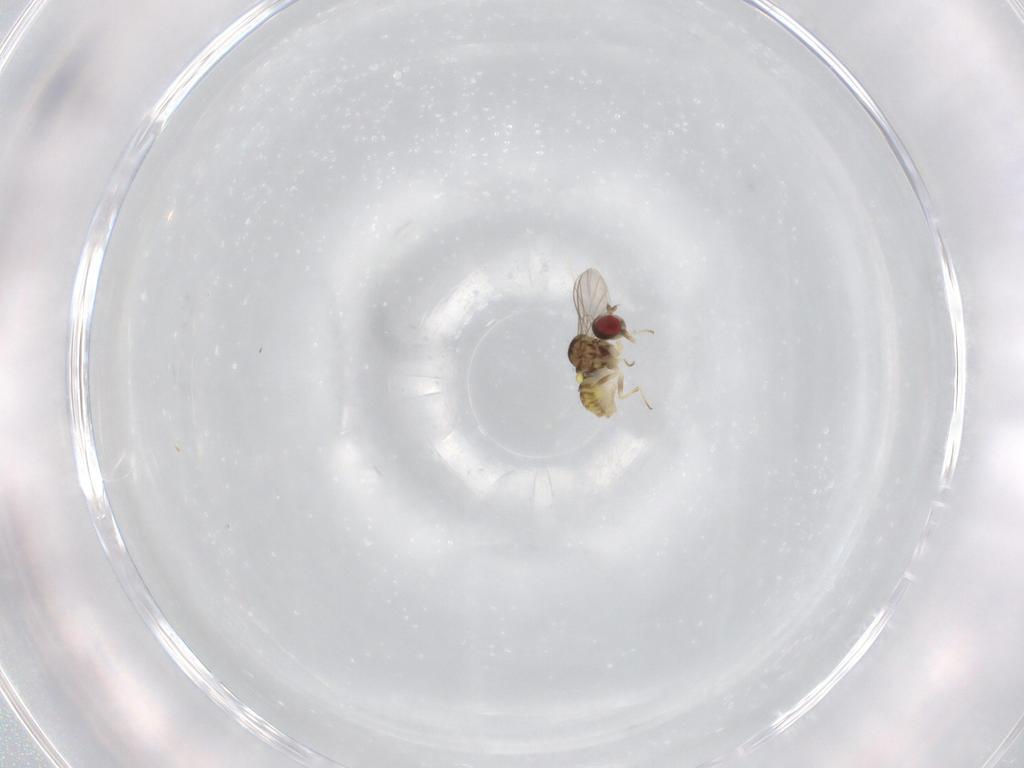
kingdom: Animalia
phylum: Arthropoda
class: Insecta
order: Diptera
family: Bombyliidae
